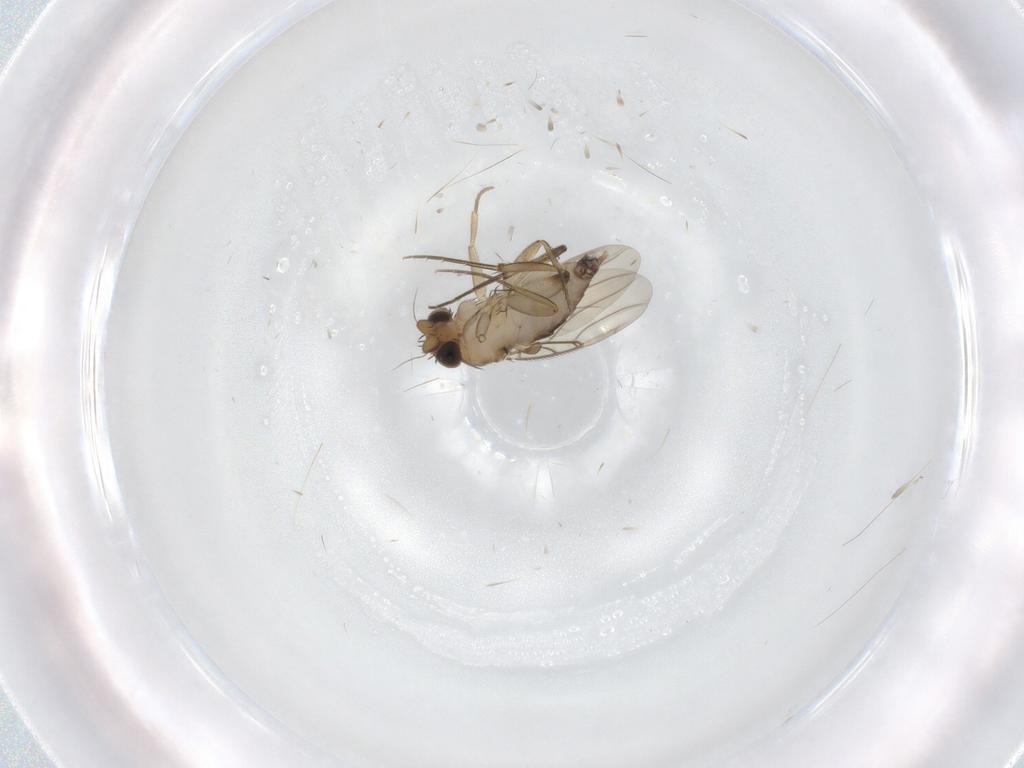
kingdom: Animalia
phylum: Arthropoda
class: Insecta
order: Diptera
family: Phoridae
